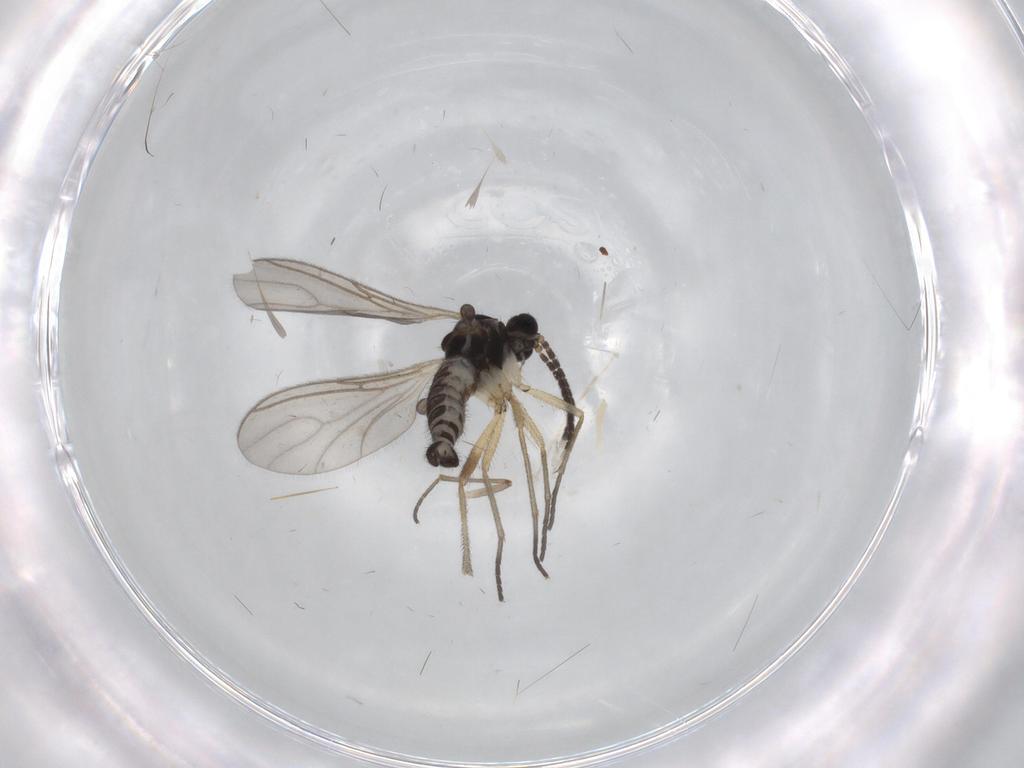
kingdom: Animalia
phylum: Arthropoda
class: Insecta
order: Diptera
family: Sciaridae
